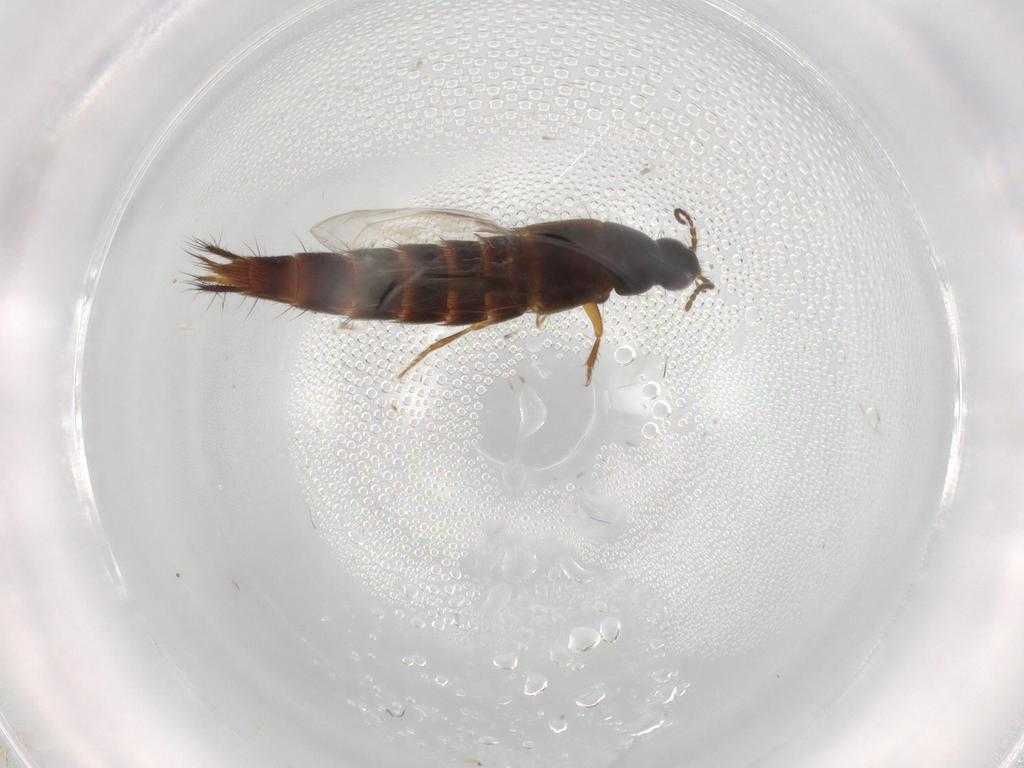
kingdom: Animalia
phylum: Arthropoda
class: Insecta
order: Coleoptera
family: Staphylinidae
